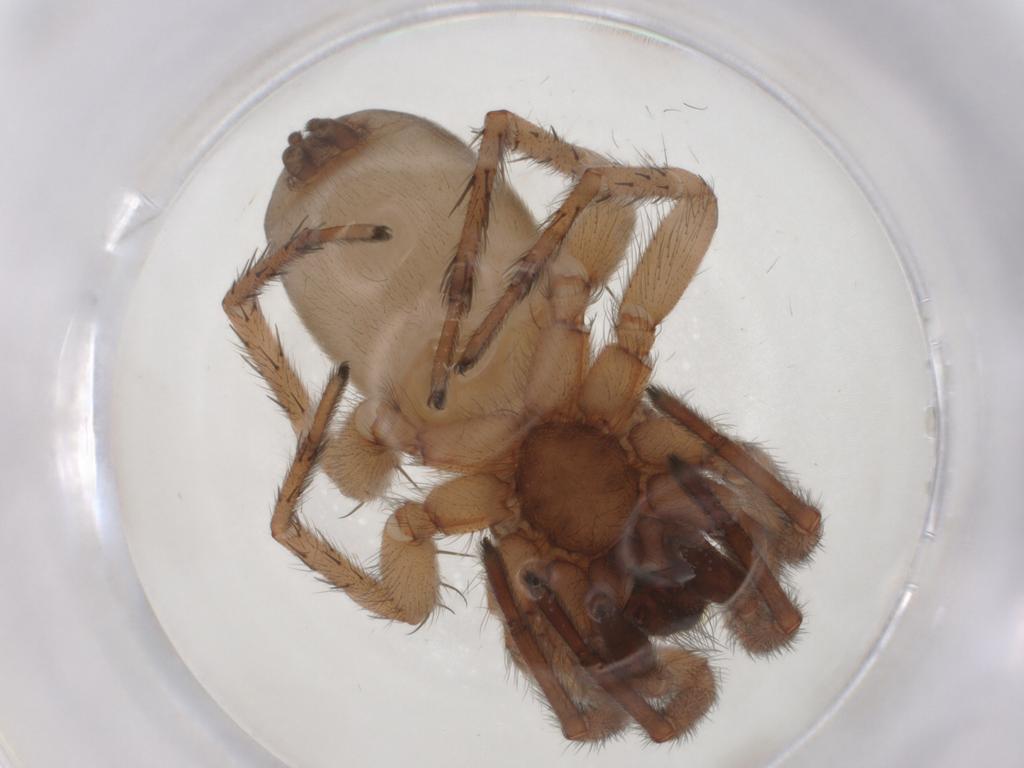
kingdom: Animalia
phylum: Arthropoda
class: Arachnida
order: Araneae
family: Gnaphosidae
